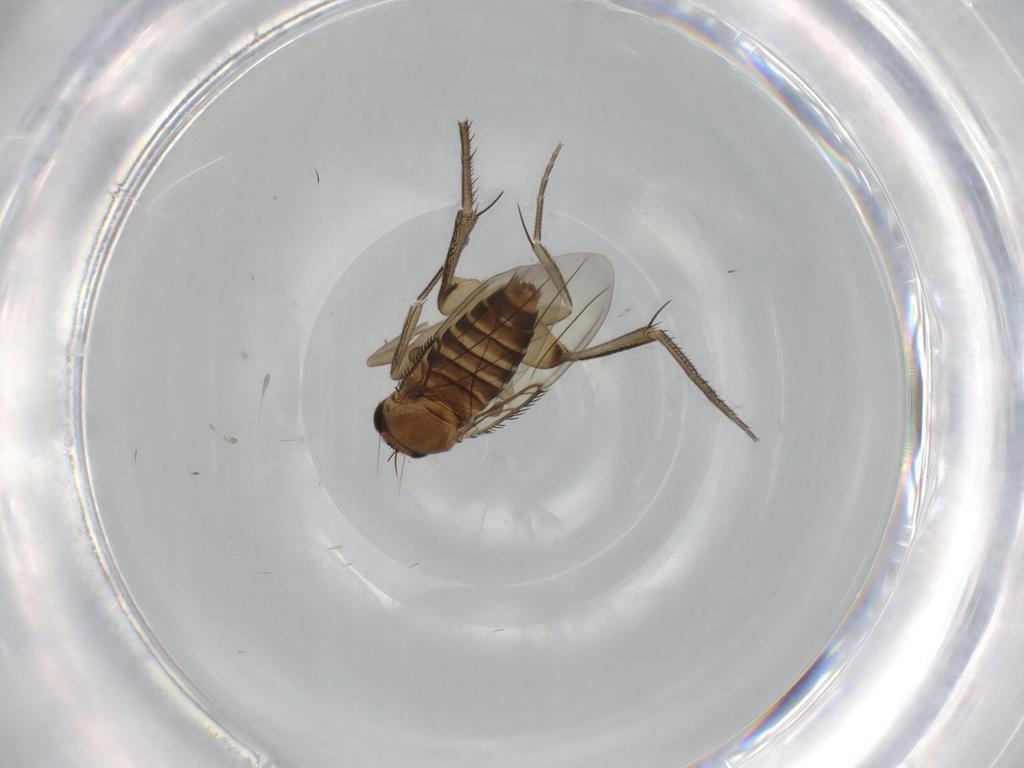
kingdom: Animalia
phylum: Arthropoda
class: Insecta
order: Diptera
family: Phoridae
